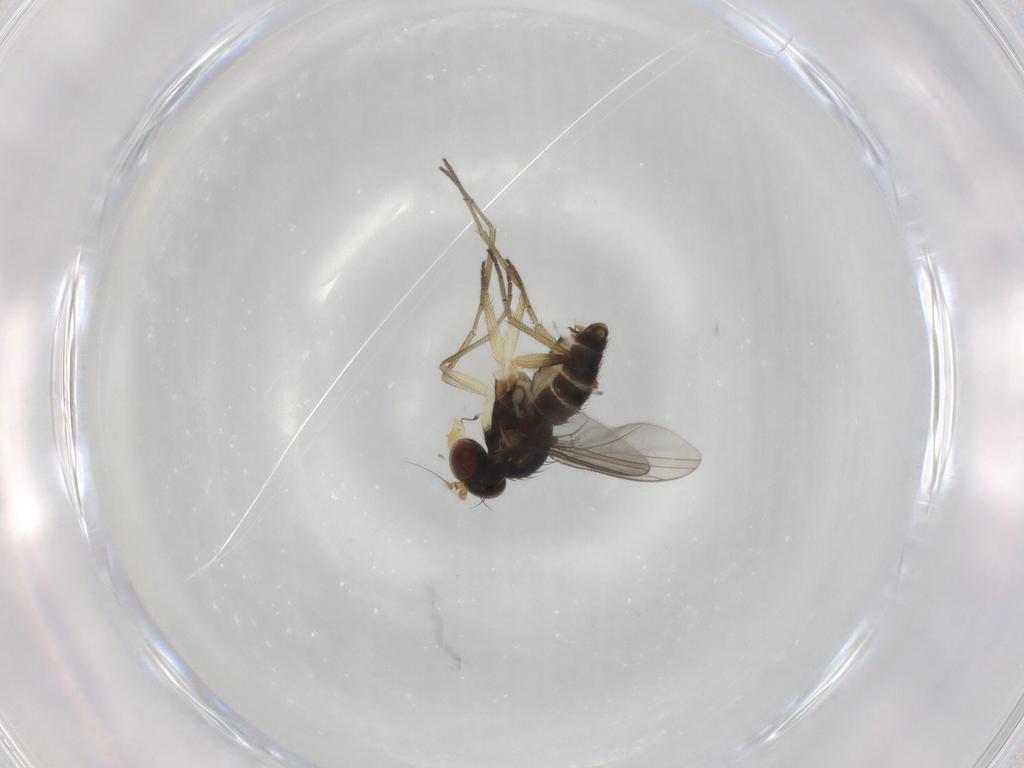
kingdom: Animalia
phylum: Arthropoda
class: Insecta
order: Diptera
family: Dolichopodidae
